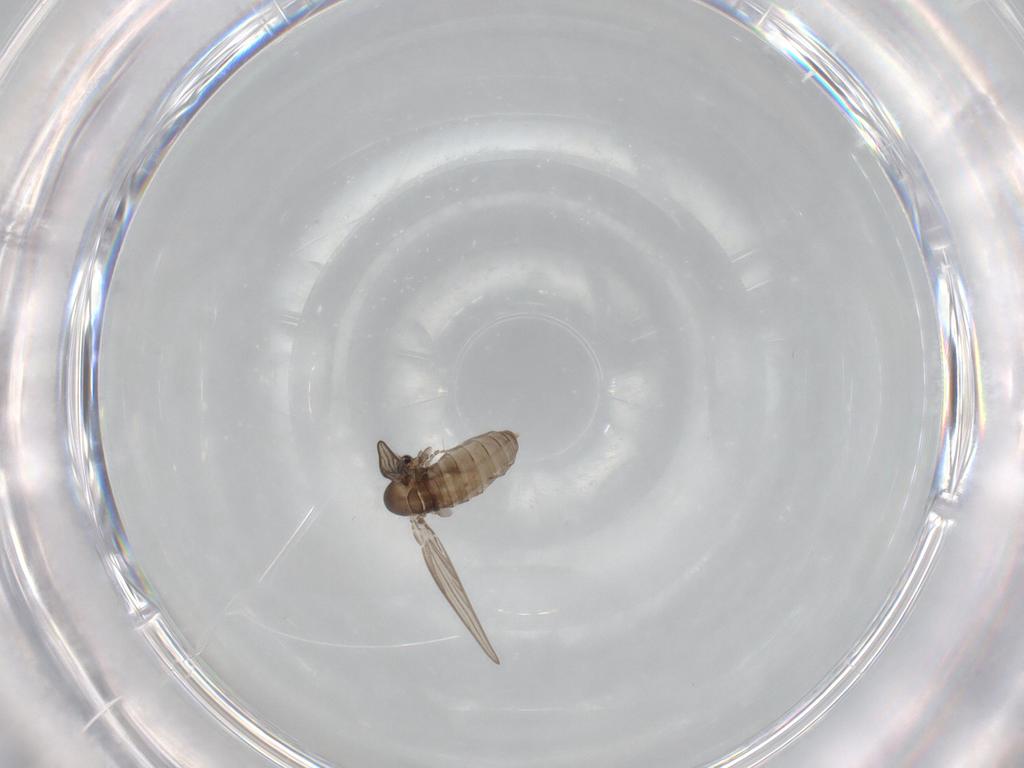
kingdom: Animalia
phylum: Arthropoda
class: Insecta
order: Diptera
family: Psychodidae
